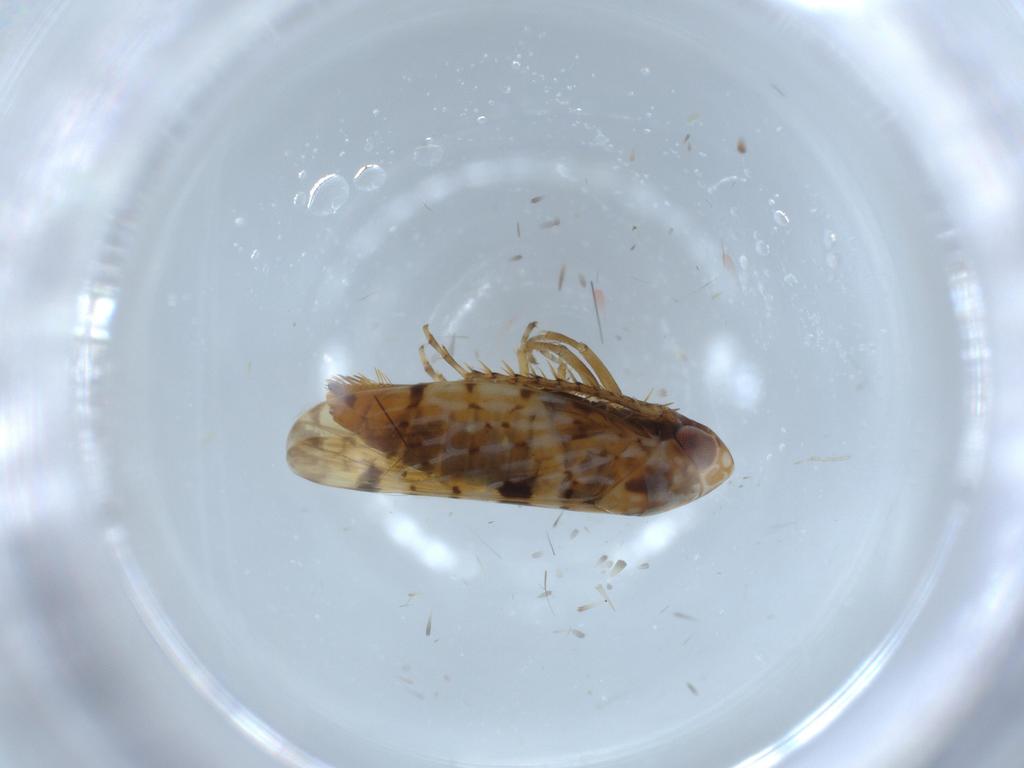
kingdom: Animalia
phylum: Arthropoda
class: Insecta
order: Hemiptera
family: Cicadellidae
